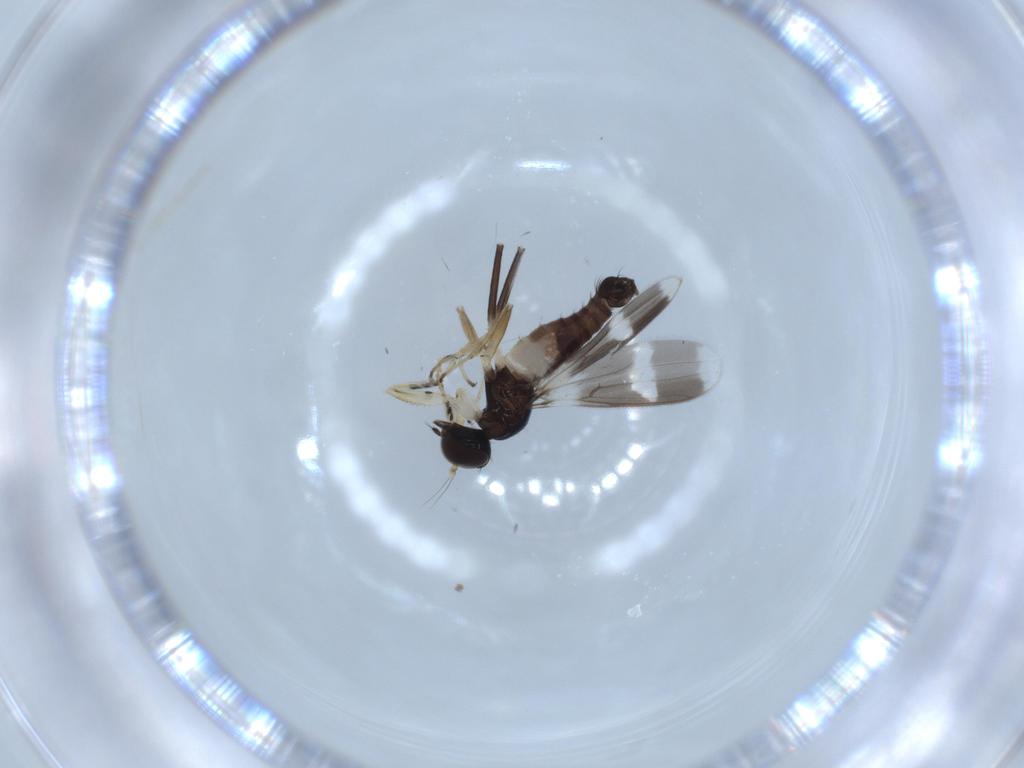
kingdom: Animalia
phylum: Arthropoda
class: Insecta
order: Diptera
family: Hybotidae
